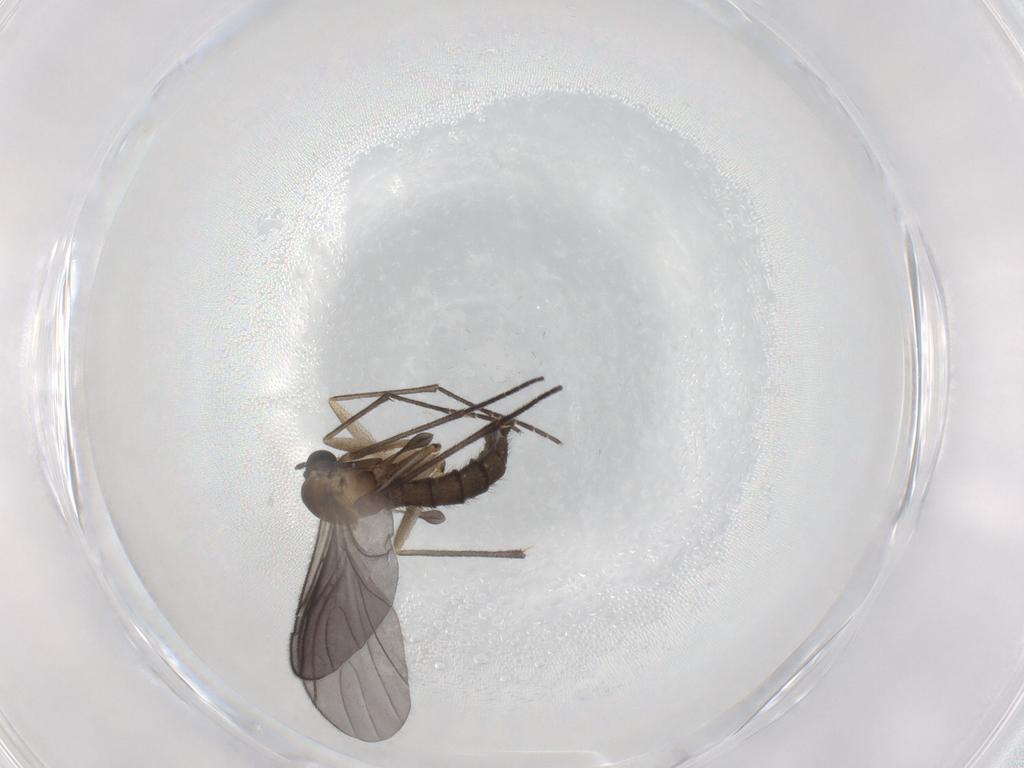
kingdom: Animalia
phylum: Arthropoda
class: Insecta
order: Diptera
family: Sciaridae
